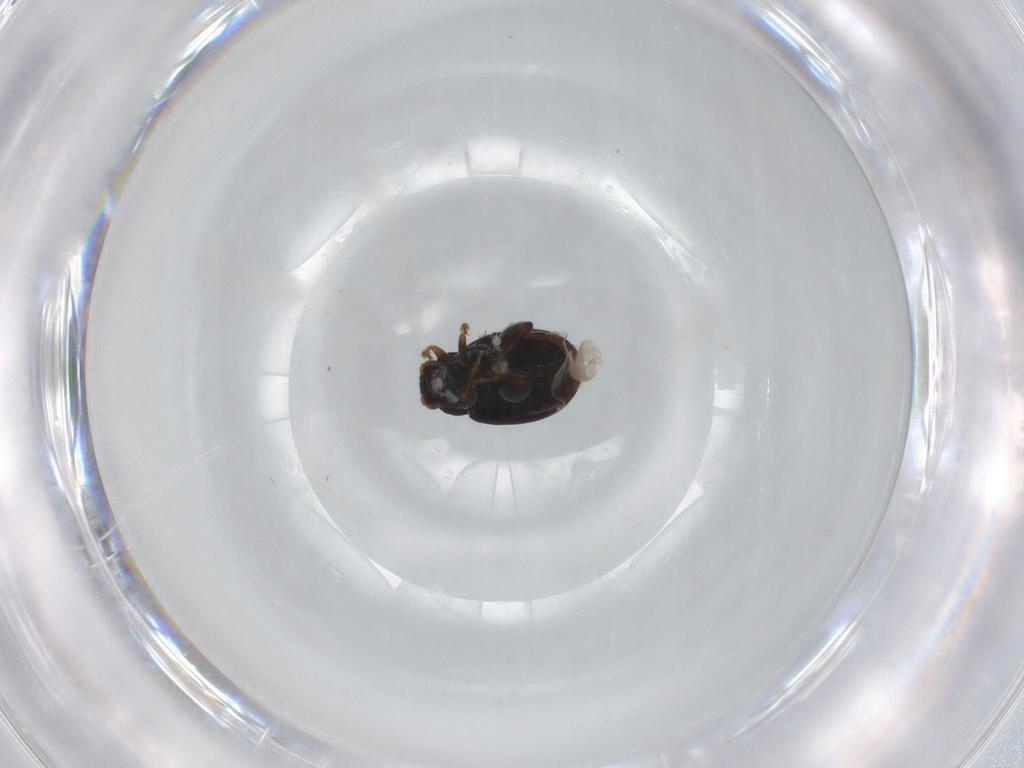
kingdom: Animalia
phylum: Arthropoda
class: Insecta
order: Coleoptera
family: Chrysomelidae
